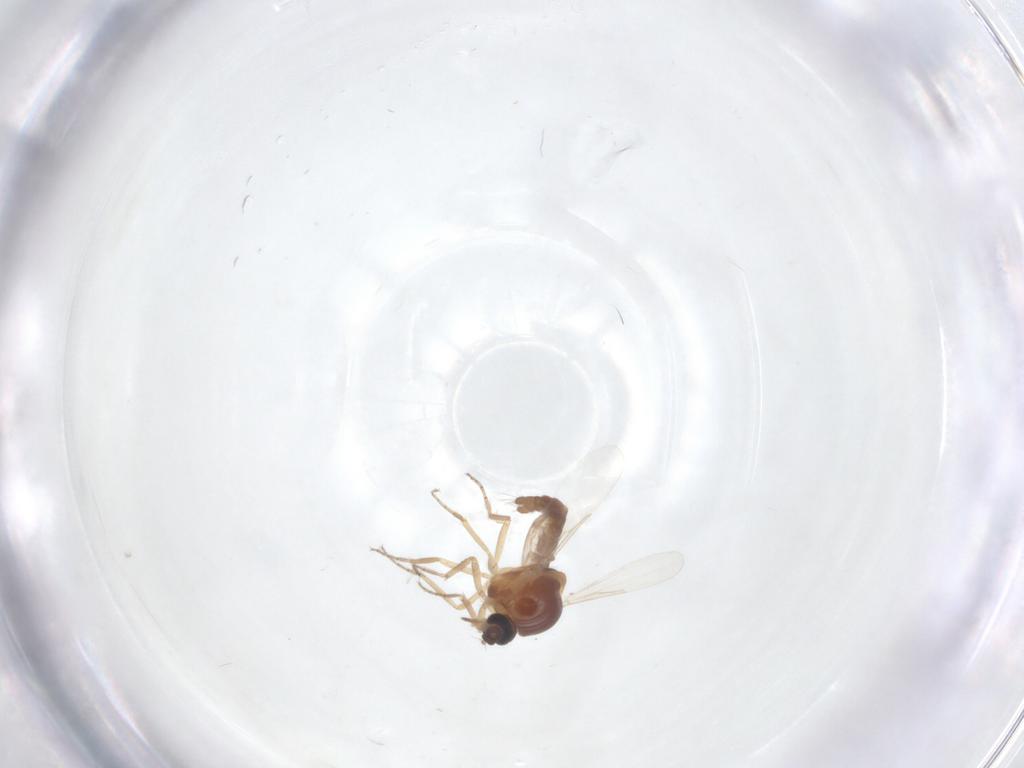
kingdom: Animalia
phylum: Arthropoda
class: Insecta
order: Diptera
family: Ceratopogonidae
